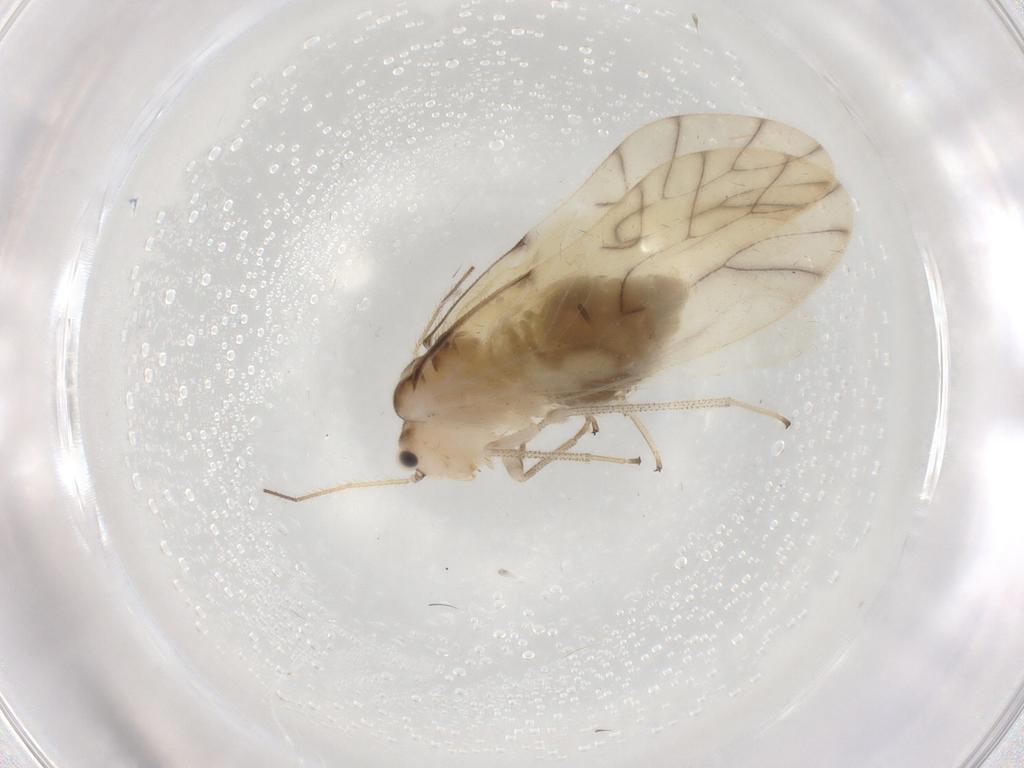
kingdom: Animalia
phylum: Arthropoda
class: Insecta
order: Psocodea
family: Caeciliusidae
